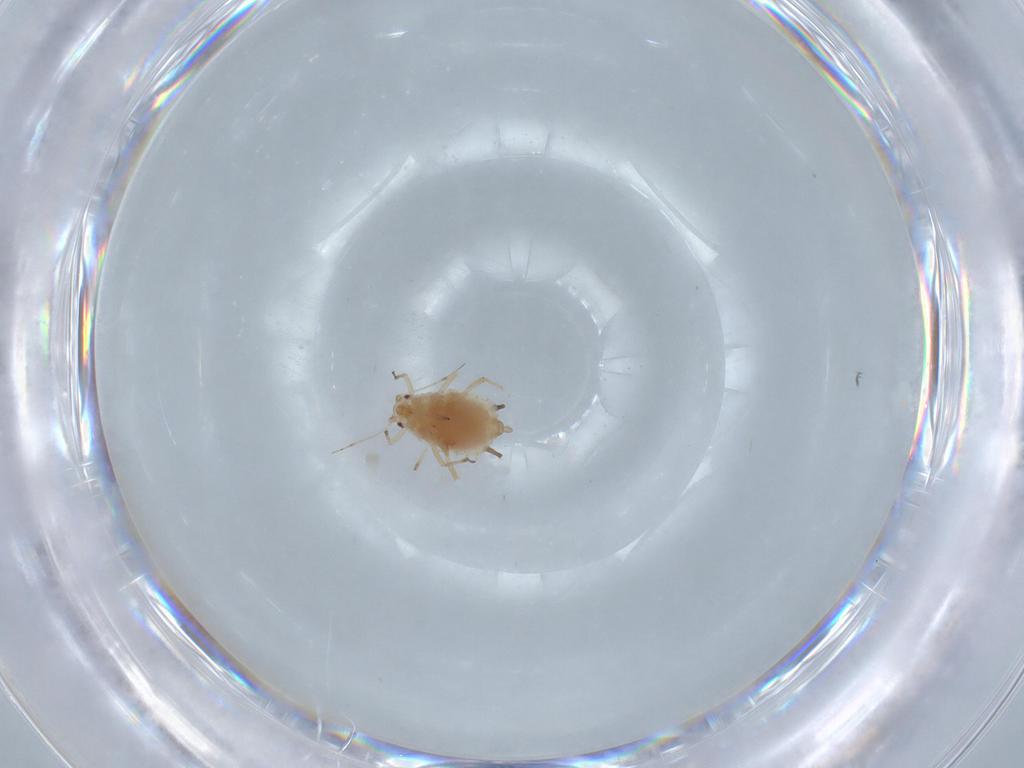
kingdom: Animalia
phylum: Arthropoda
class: Insecta
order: Hemiptera
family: Aphididae
